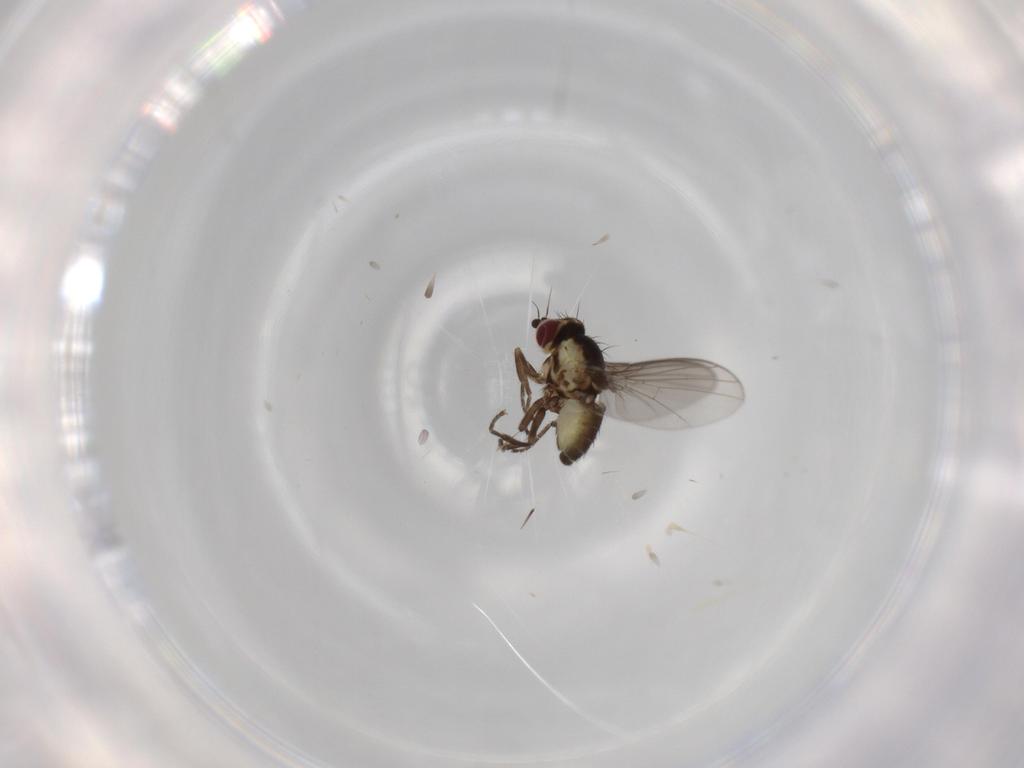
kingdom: Animalia
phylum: Arthropoda
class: Insecta
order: Diptera
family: Agromyzidae
